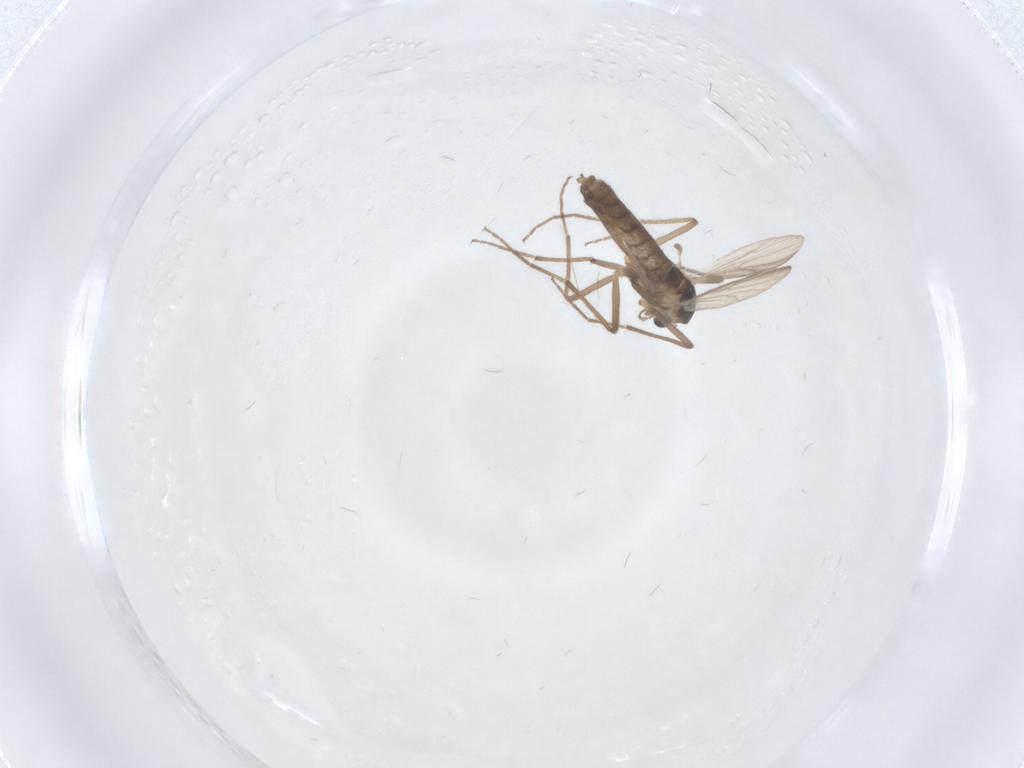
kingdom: Animalia
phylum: Arthropoda
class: Insecta
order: Diptera
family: Chironomidae
